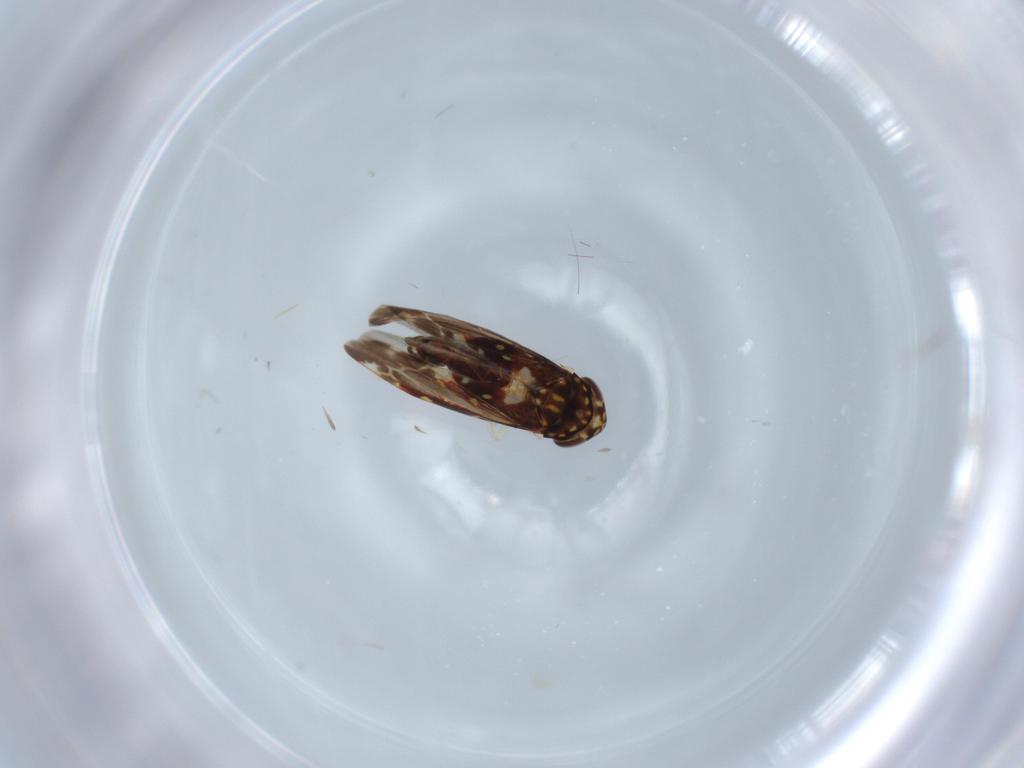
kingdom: Animalia
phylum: Arthropoda
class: Insecta
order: Hemiptera
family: Cicadellidae
